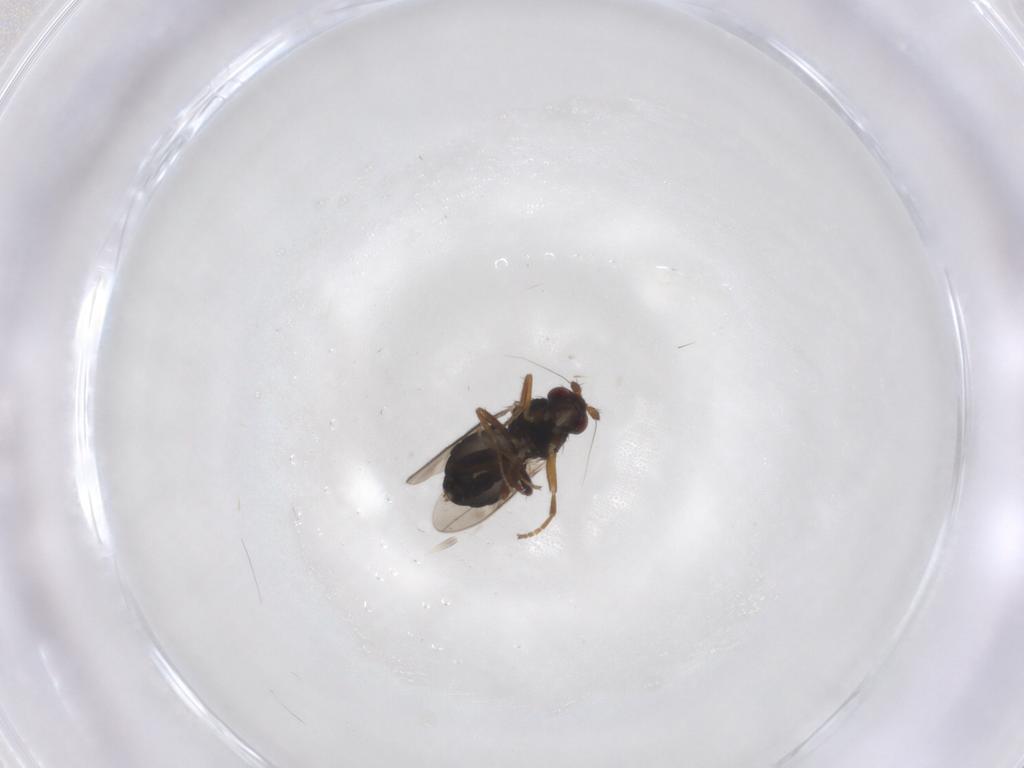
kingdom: Animalia
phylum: Arthropoda
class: Insecta
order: Diptera
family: Sphaeroceridae
